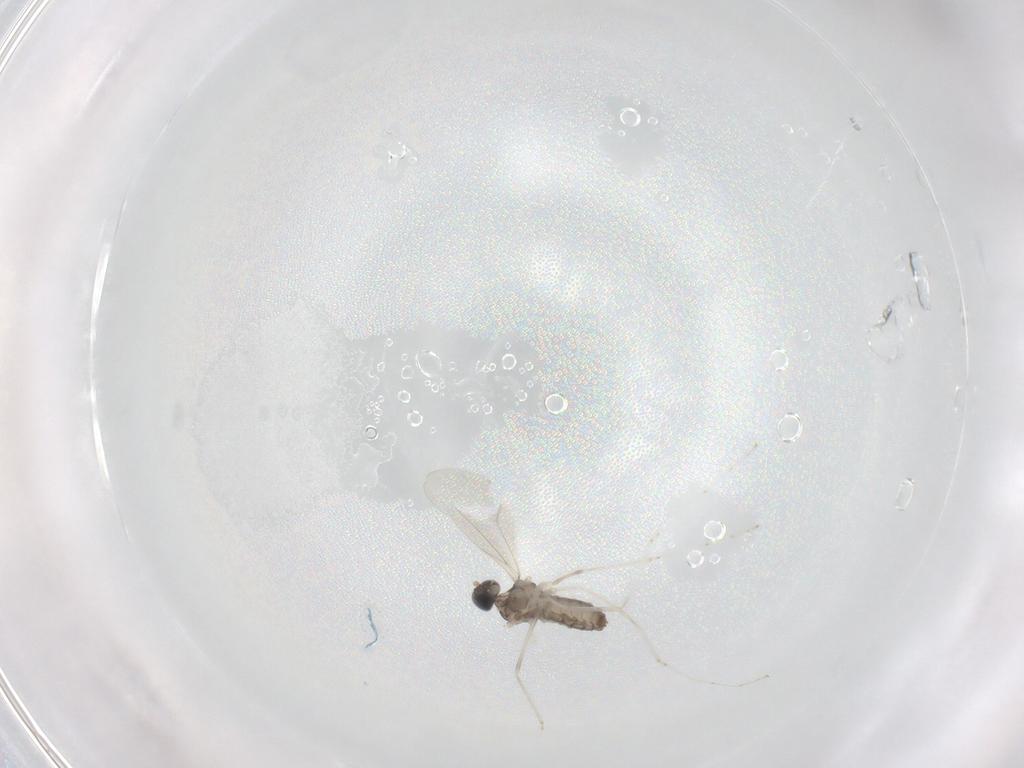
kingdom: Animalia
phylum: Arthropoda
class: Insecta
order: Diptera
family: Cecidomyiidae
